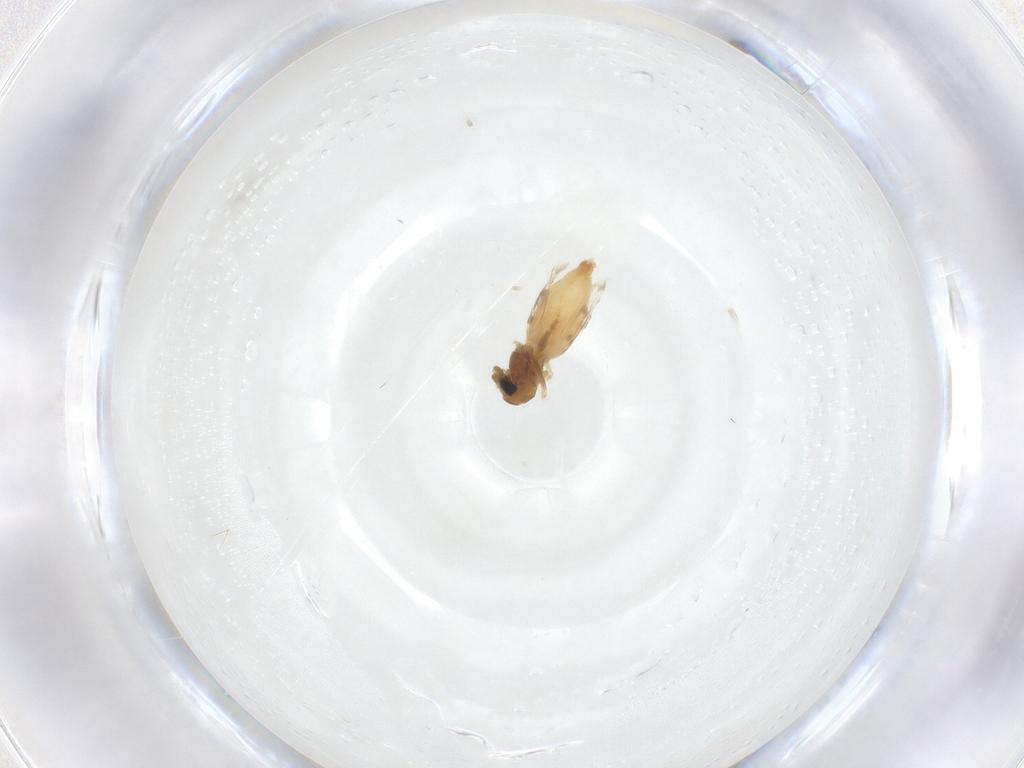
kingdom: Animalia
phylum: Arthropoda
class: Insecta
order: Diptera
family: Chironomidae
